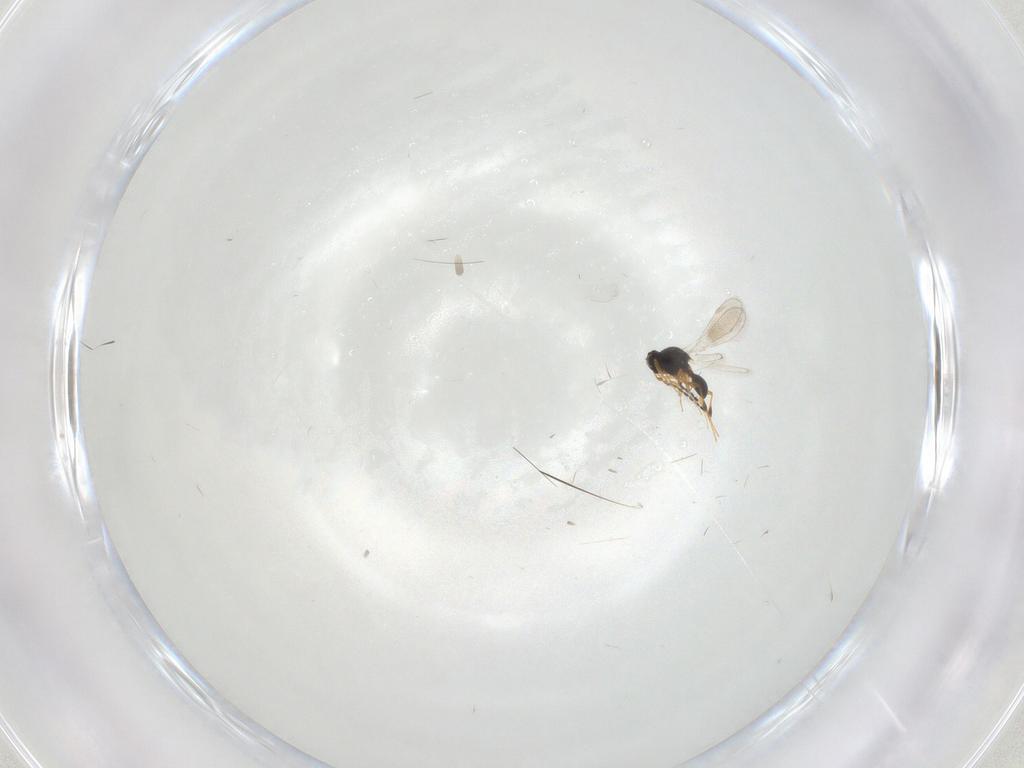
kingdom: Animalia
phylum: Arthropoda
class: Insecta
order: Hymenoptera
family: Platygastridae
